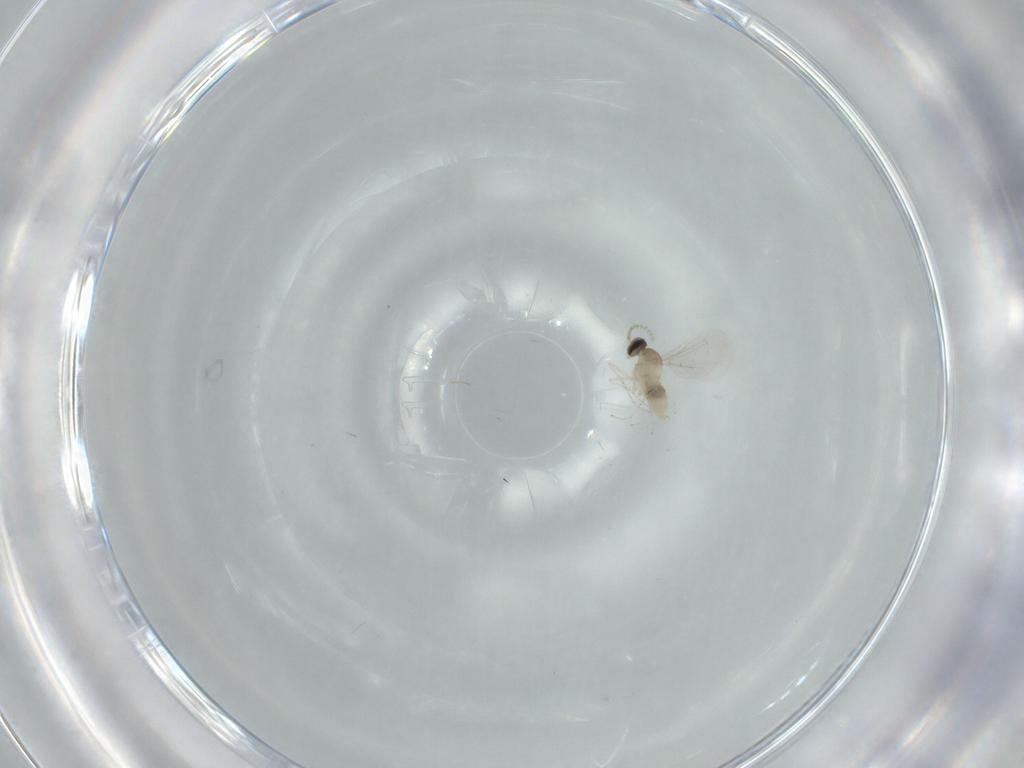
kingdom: Animalia
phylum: Arthropoda
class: Insecta
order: Diptera
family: Cecidomyiidae
